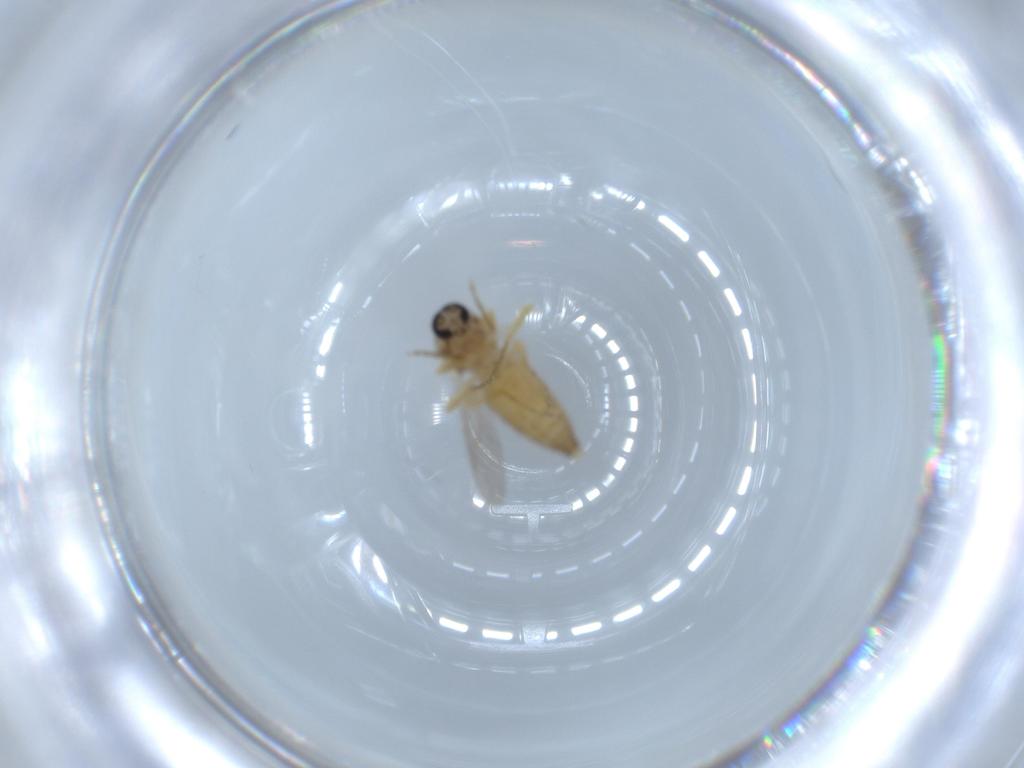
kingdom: Animalia
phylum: Arthropoda
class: Insecta
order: Diptera
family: Ceratopogonidae
